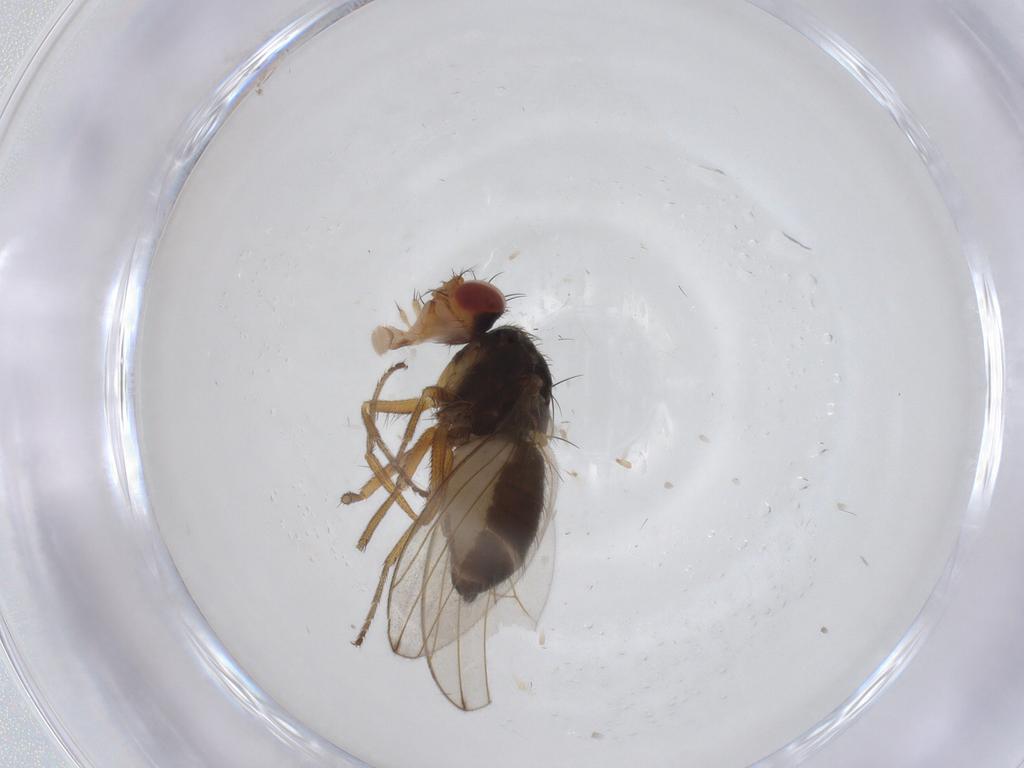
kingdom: Animalia
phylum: Arthropoda
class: Insecta
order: Diptera
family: Drosophilidae
